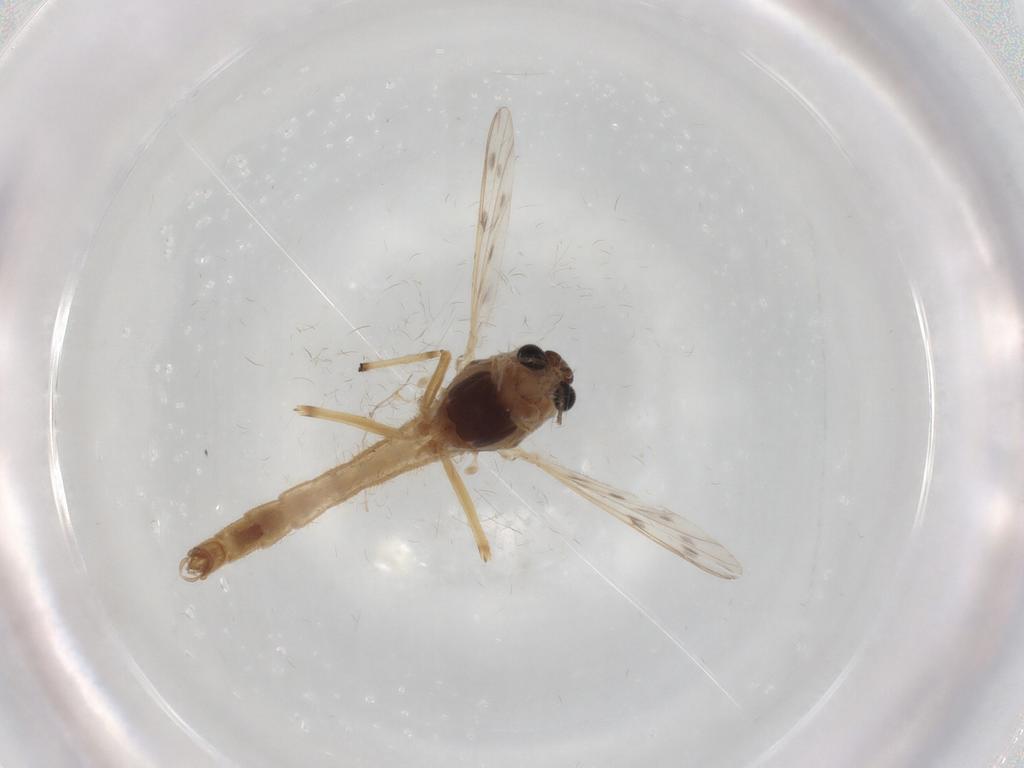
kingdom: Animalia
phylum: Arthropoda
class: Insecta
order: Diptera
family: Chironomidae
